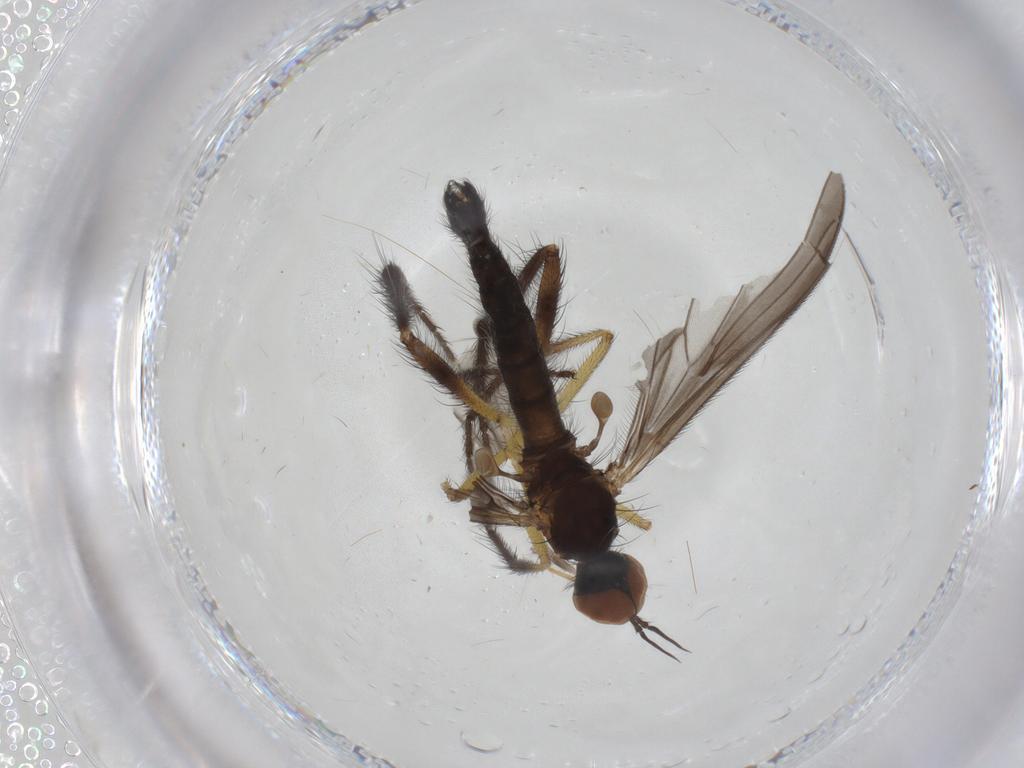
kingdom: Animalia
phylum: Arthropoda
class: Insecta
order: Diptera
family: Empididae
